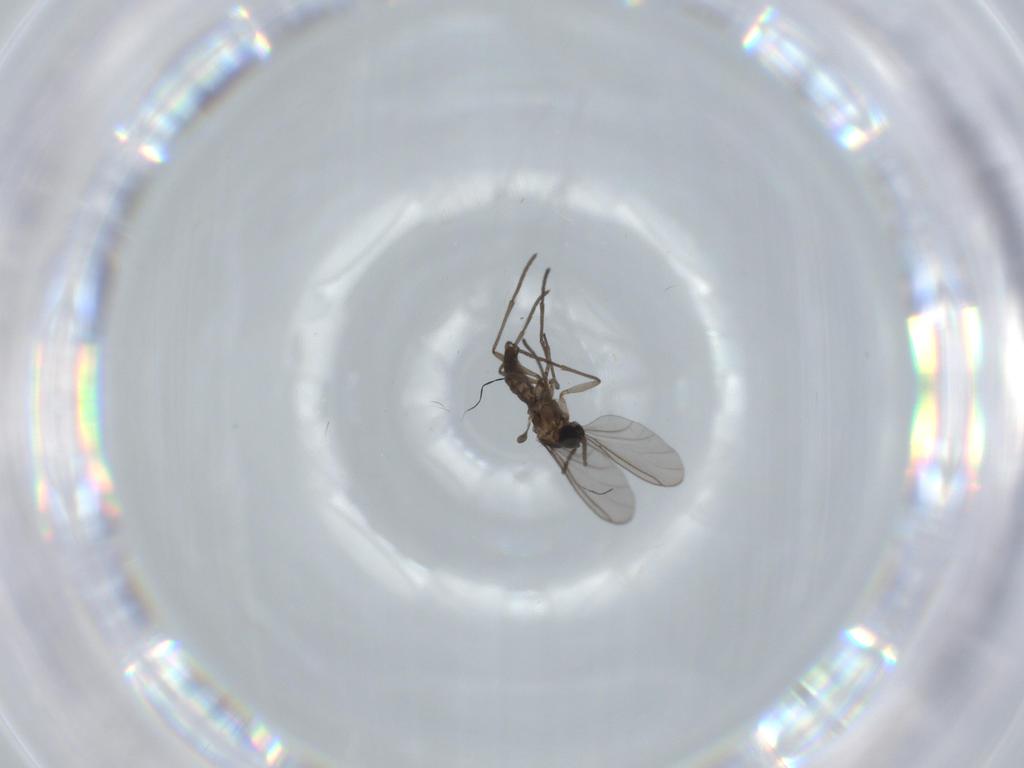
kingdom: Animalia
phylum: Arthropoda
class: Insecta
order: Diptera
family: Sciaridae
